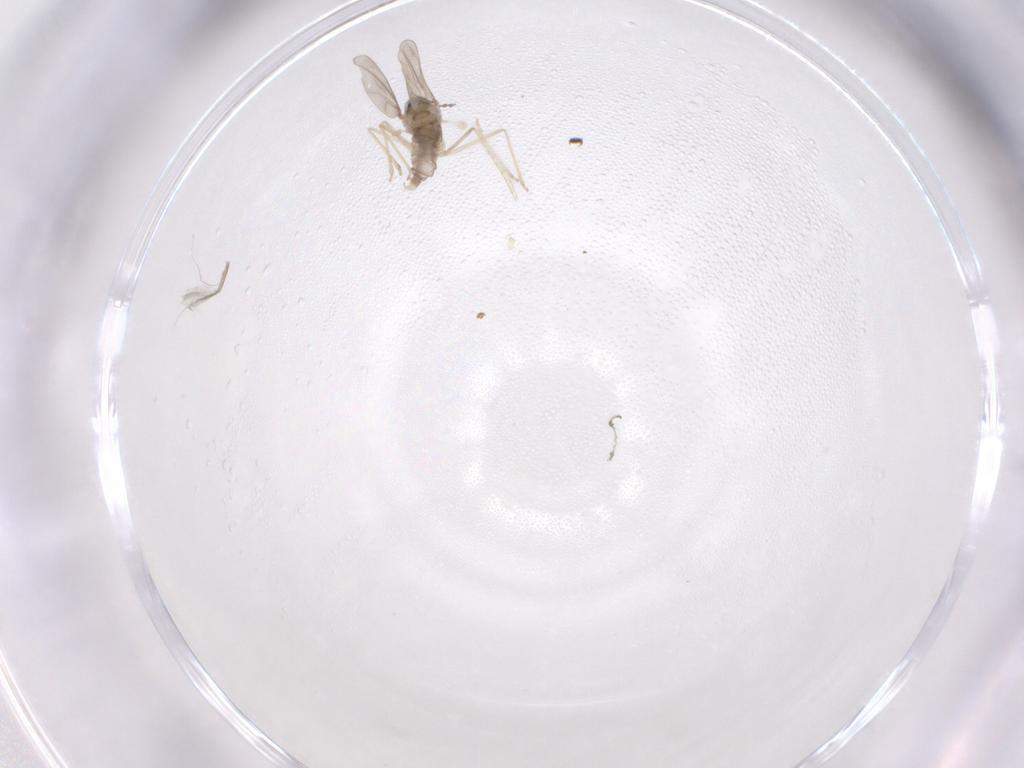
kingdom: Animalia
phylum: Arthropoda
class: Insecta
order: Diptera
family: Cecidomyiidae
